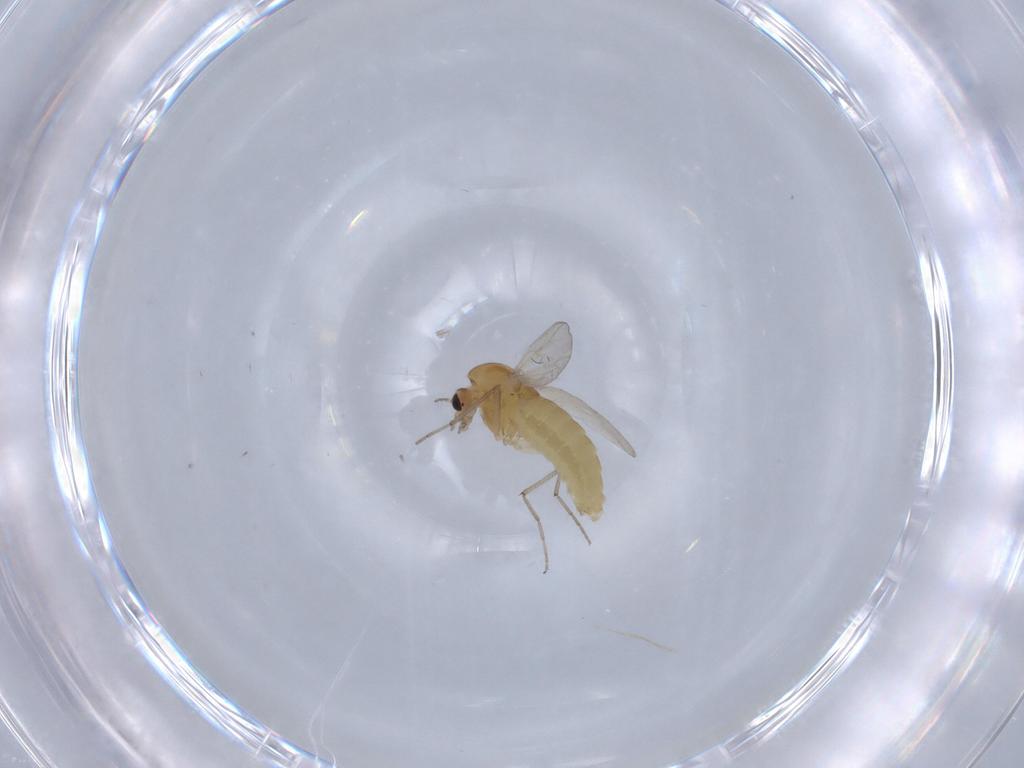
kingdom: Animalia
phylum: Arthropoda
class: Insecta
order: Diptera
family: Chironomidae
